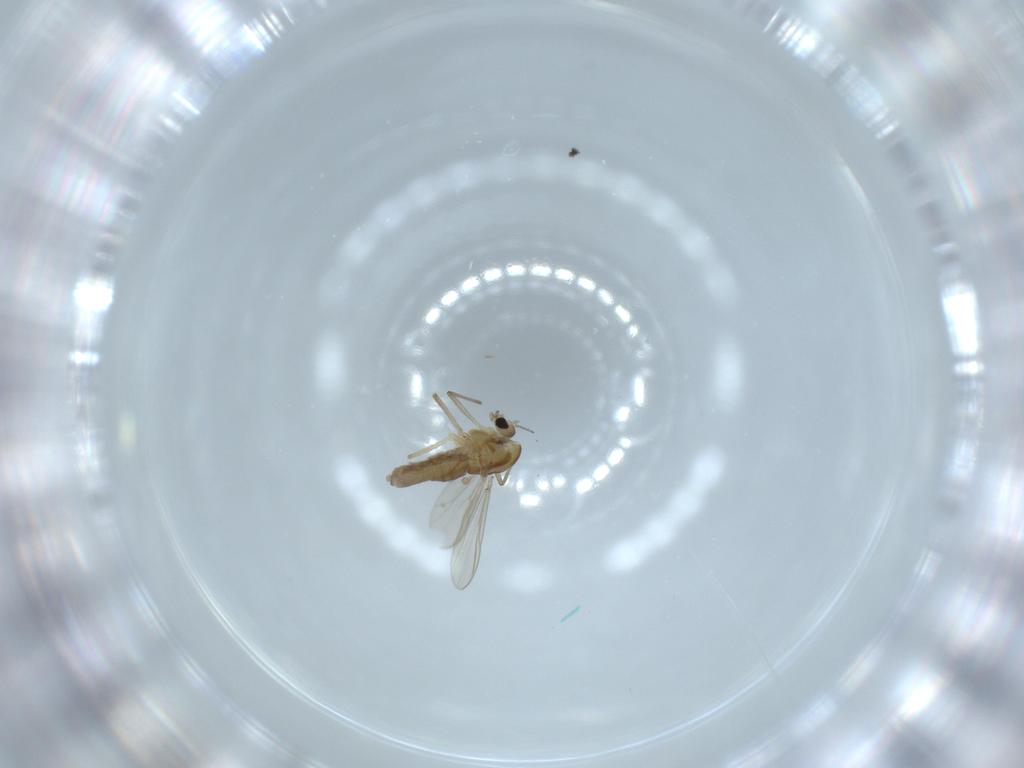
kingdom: Animalia
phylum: Arthropoda
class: Insecta
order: Diptera
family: Chironomidae
